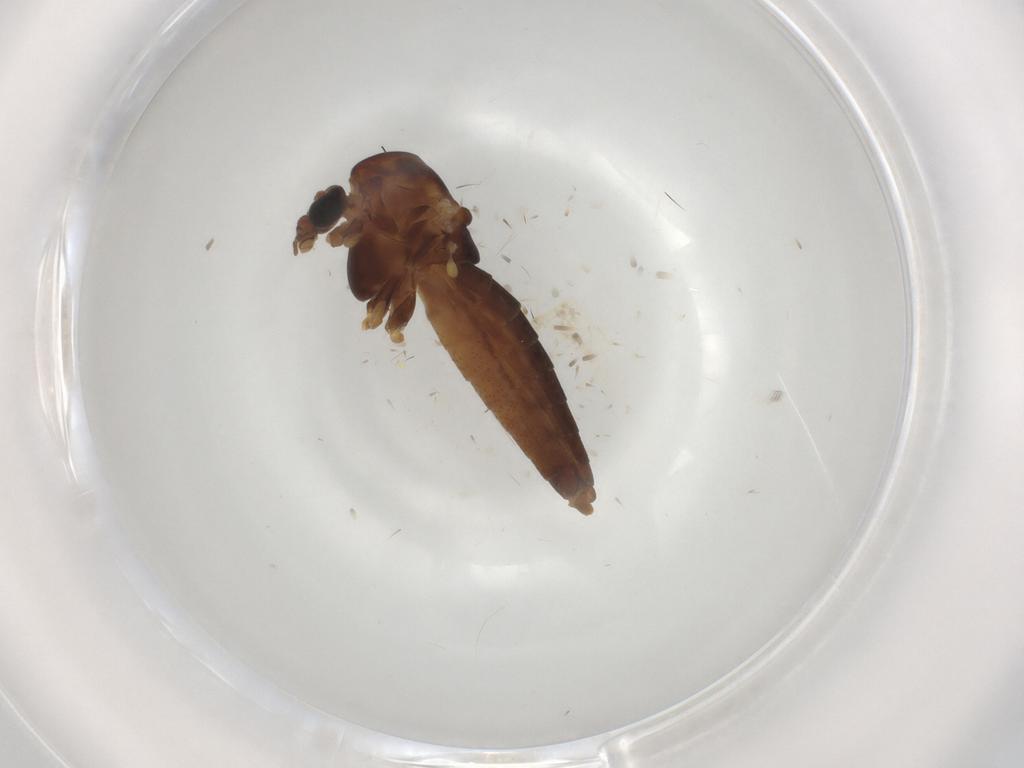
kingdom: Animalia
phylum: Arthropoda
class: Insecta
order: Diptera
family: Chironomidae
